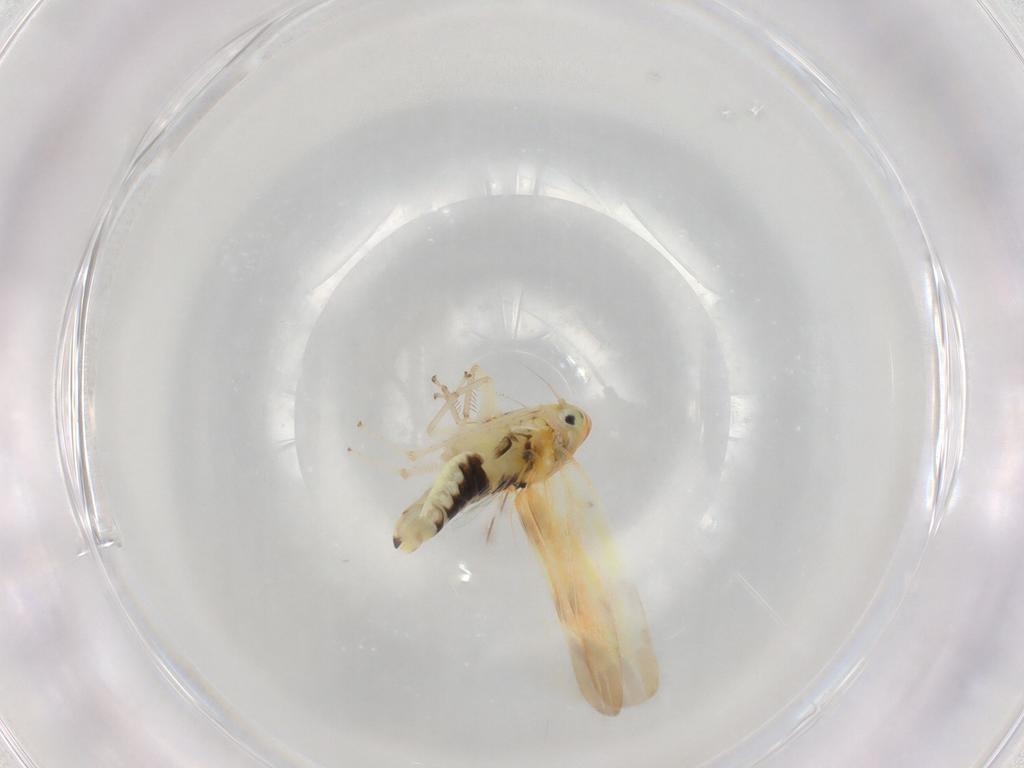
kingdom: Animalia
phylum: Arthropoda
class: Insecta
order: Hemiptera
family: Cicadellidae
